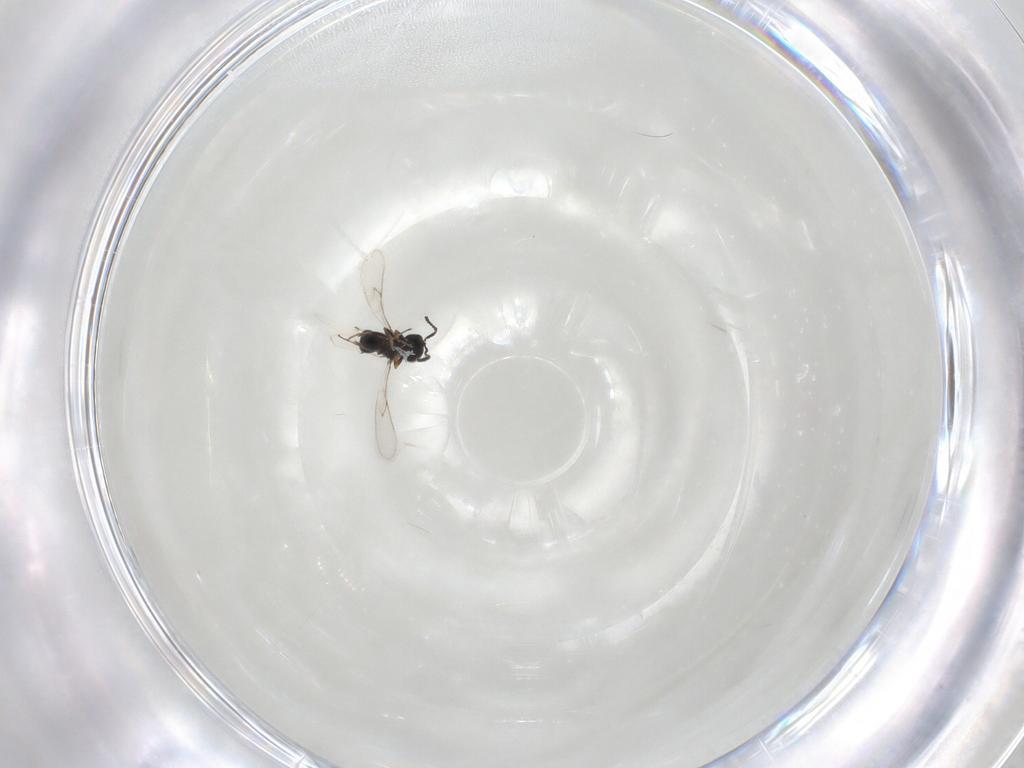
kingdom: Animalia
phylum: Arthropoda
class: Insecta
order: Hymenoptera
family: Scelionidae
